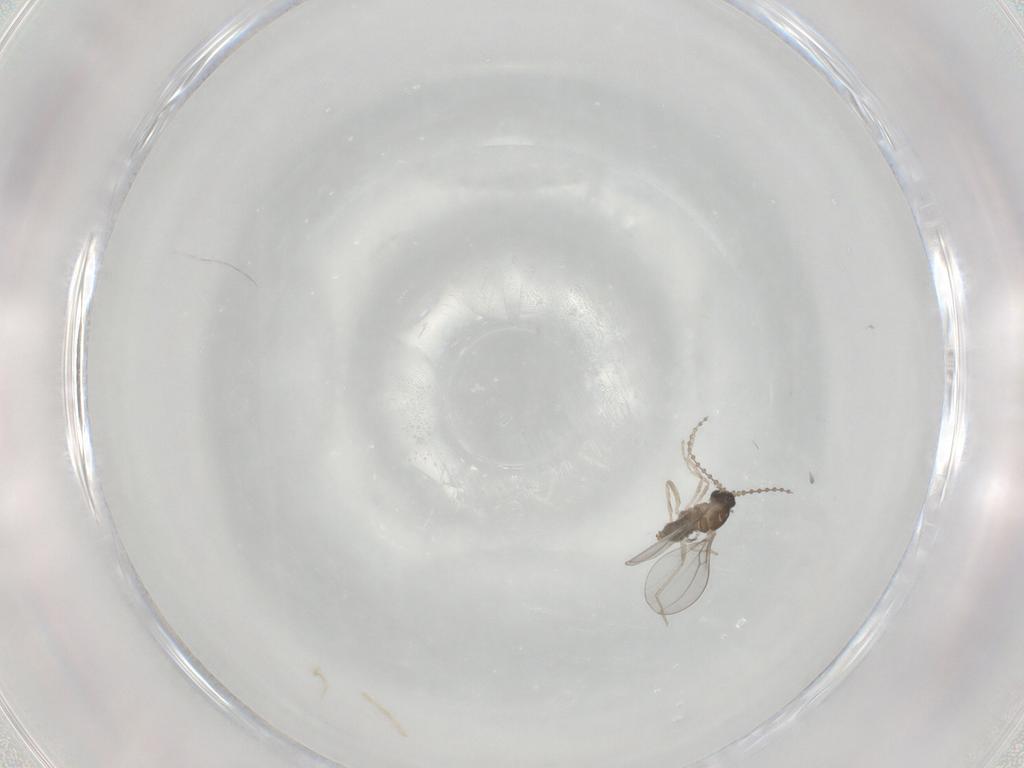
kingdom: Animalia
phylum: Arthropoda
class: Insecta
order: Diptera
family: Cecidomyiidae
